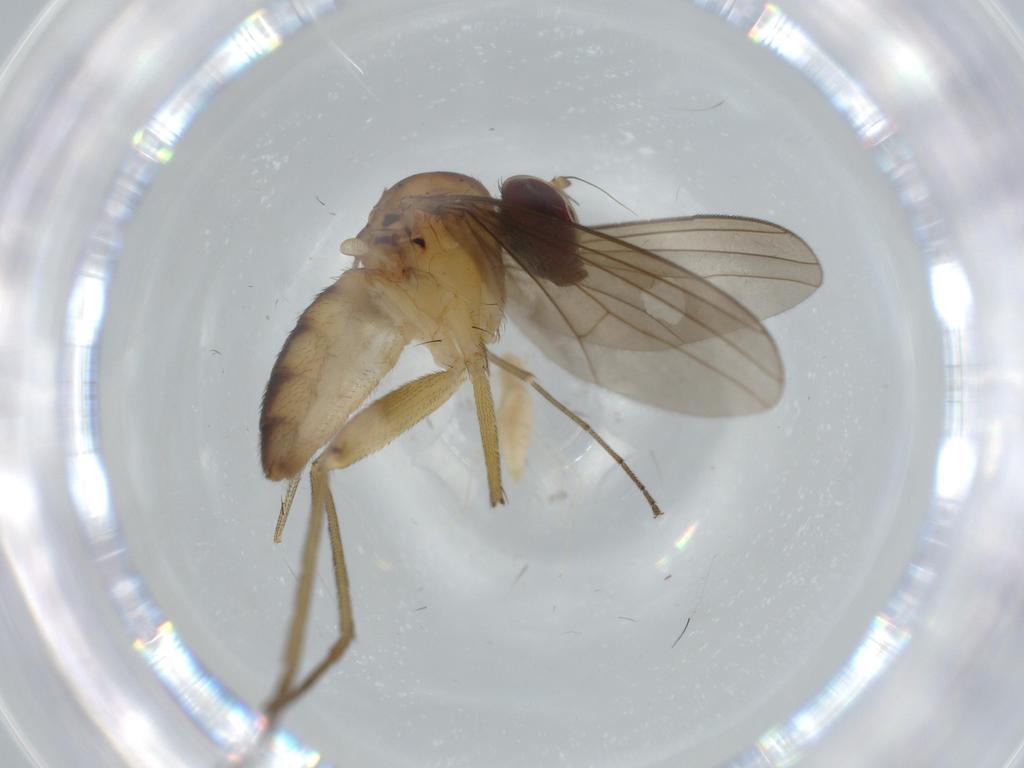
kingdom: Animalia
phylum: Arthropoda
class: Insecta
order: Diptera
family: Dolichopodidae
